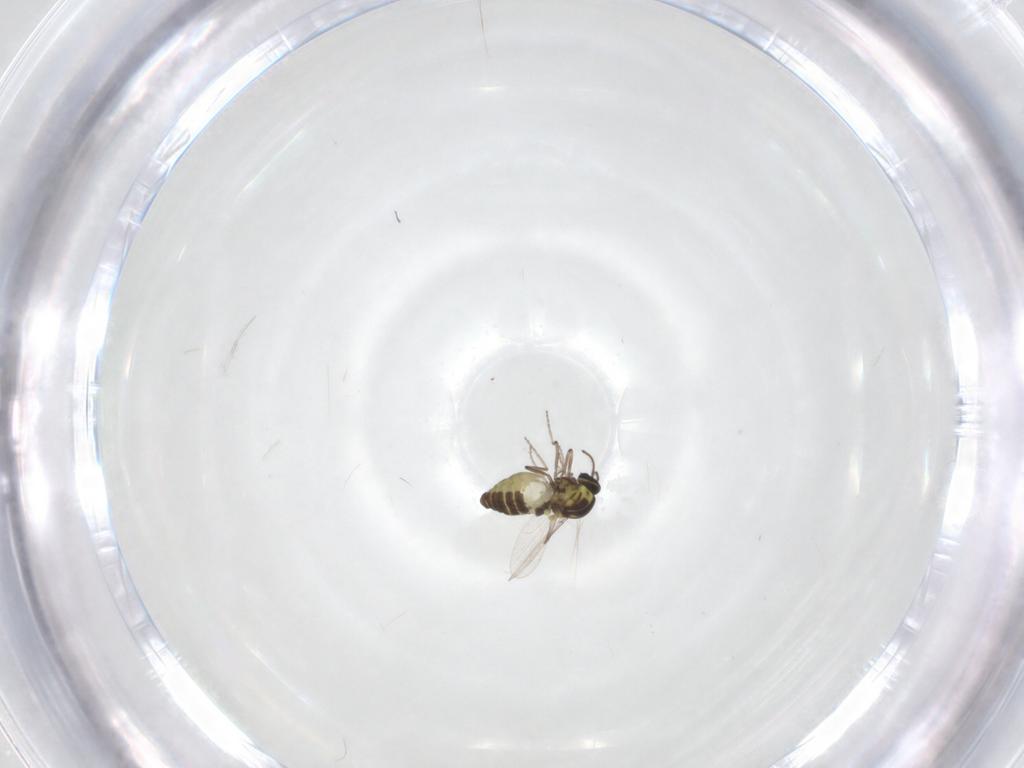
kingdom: Animalia
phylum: Arthropoda
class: Insecta
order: Diptera
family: Ceratopogonidae
